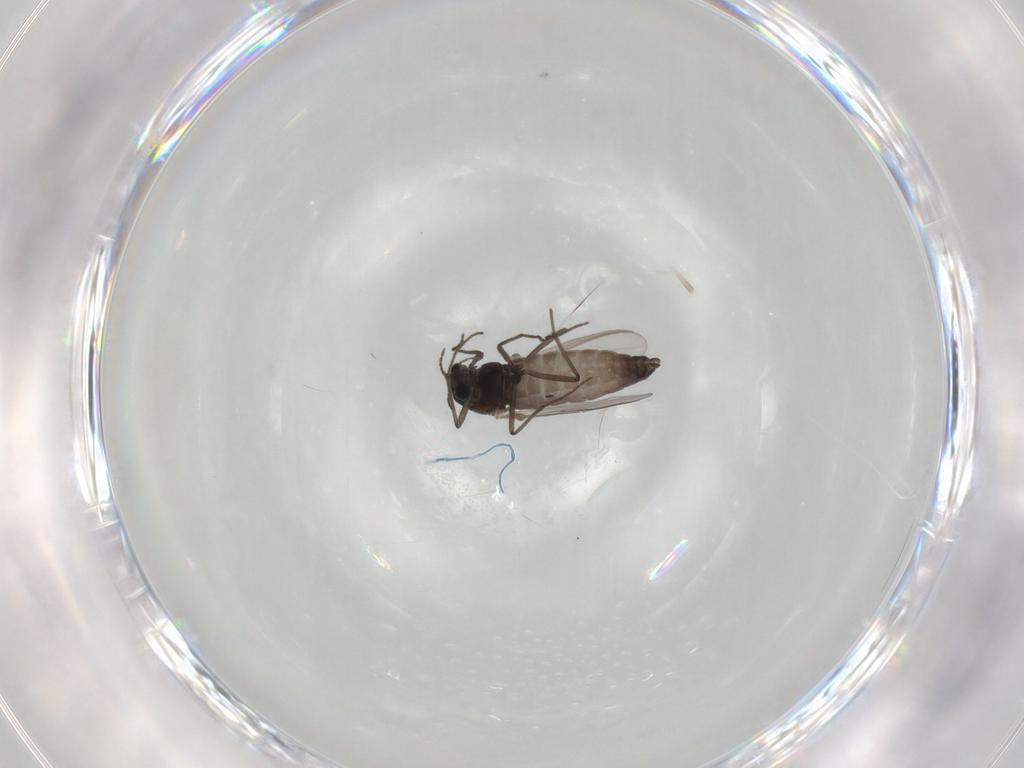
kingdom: Animalia
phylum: Arthropoda
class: Insecta
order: Diptera
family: Chironomidae
